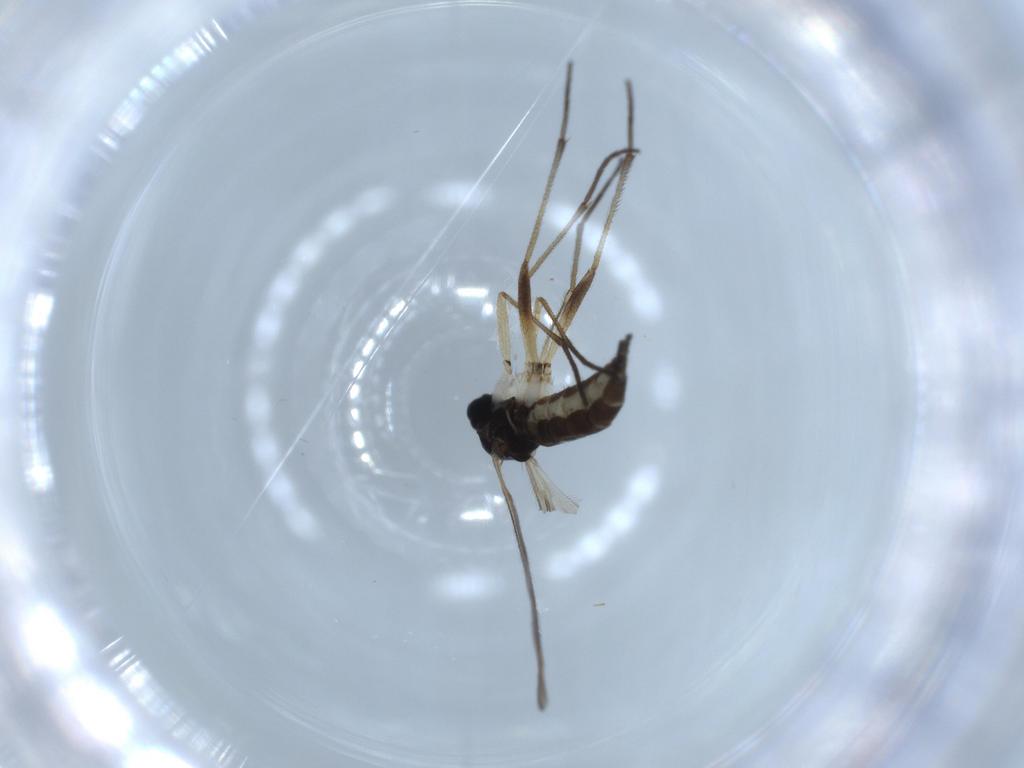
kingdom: Animalia
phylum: Arthropoda
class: Insecta
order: Diptera
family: Sciaridae
